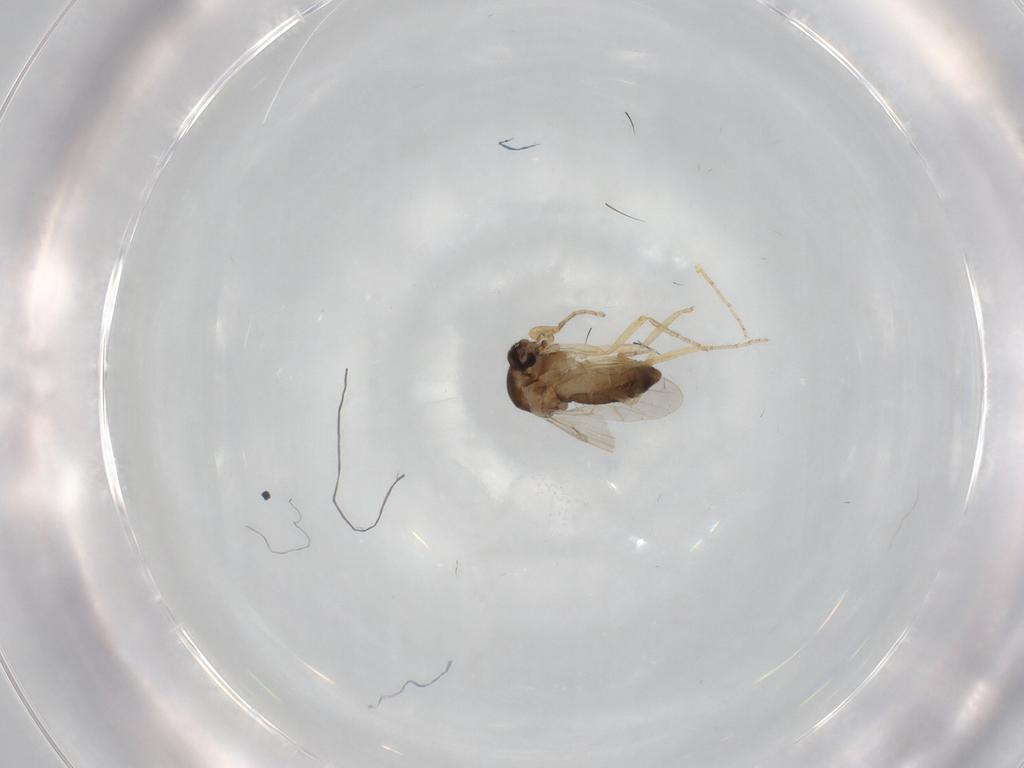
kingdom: Animalia
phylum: Arthropoda
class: Insecta
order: Diptera
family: Ceratopogonidae
